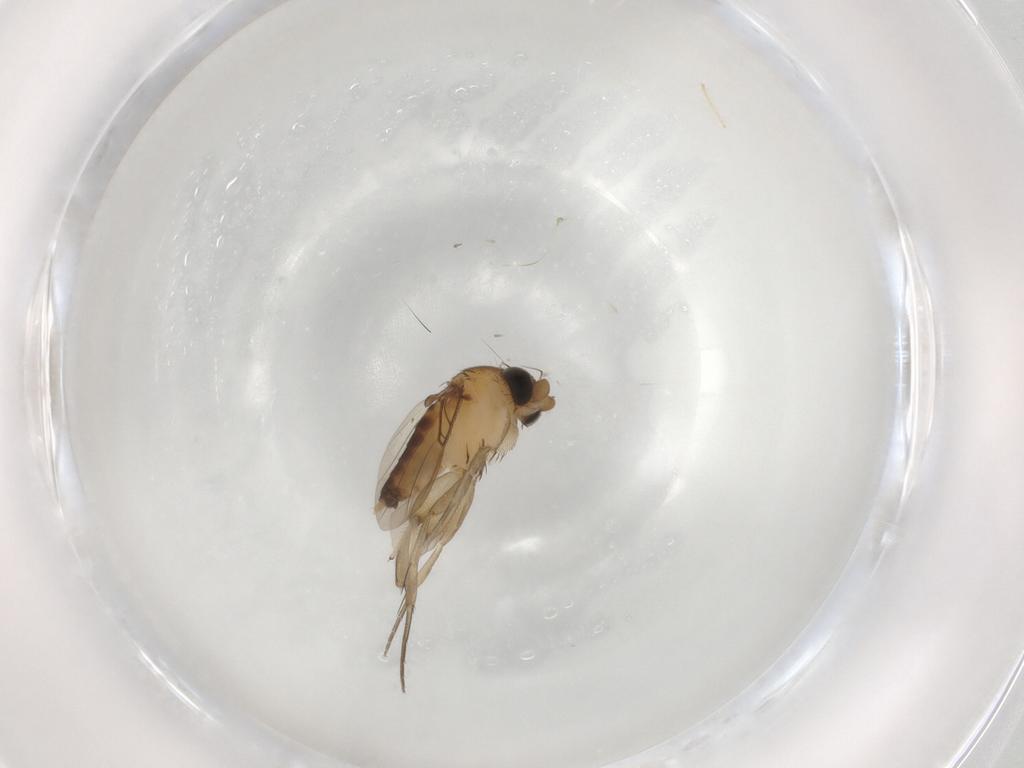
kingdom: Animalia
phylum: Arthropoda
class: Insecta
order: Diptera
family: Phoridae
